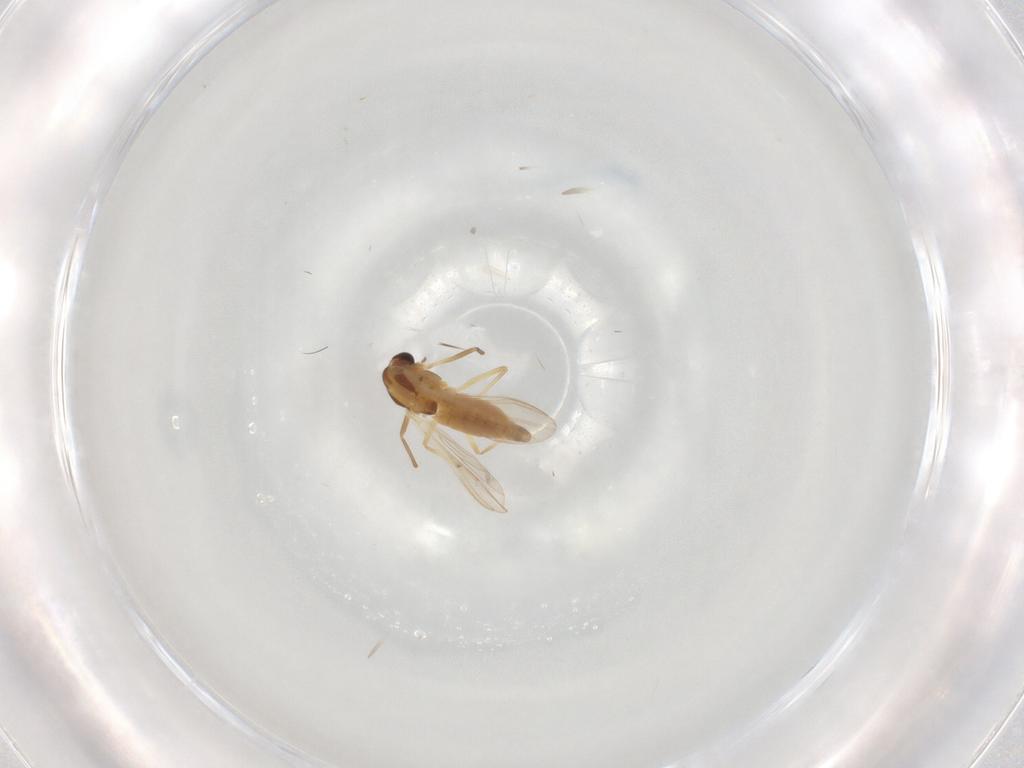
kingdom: Animalia
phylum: Arthropoda
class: Insecta
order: Diptera
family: Chironomidae
